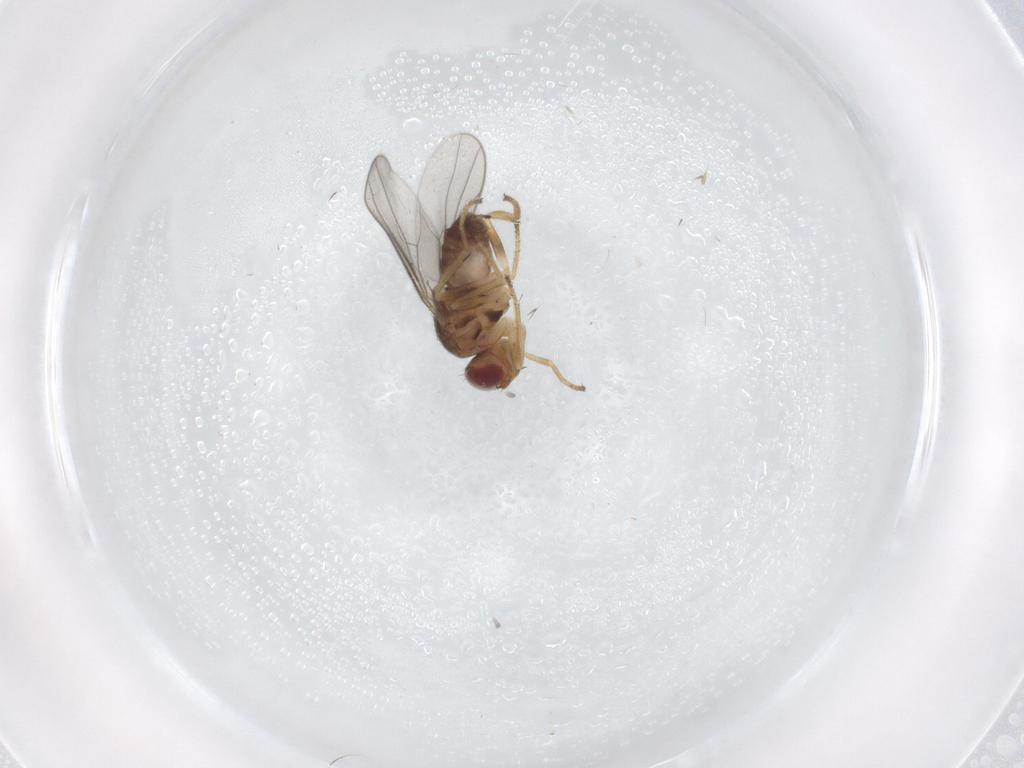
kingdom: Animalia
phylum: Arthropoda
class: Insecta
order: Diptera
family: Chloropidae
